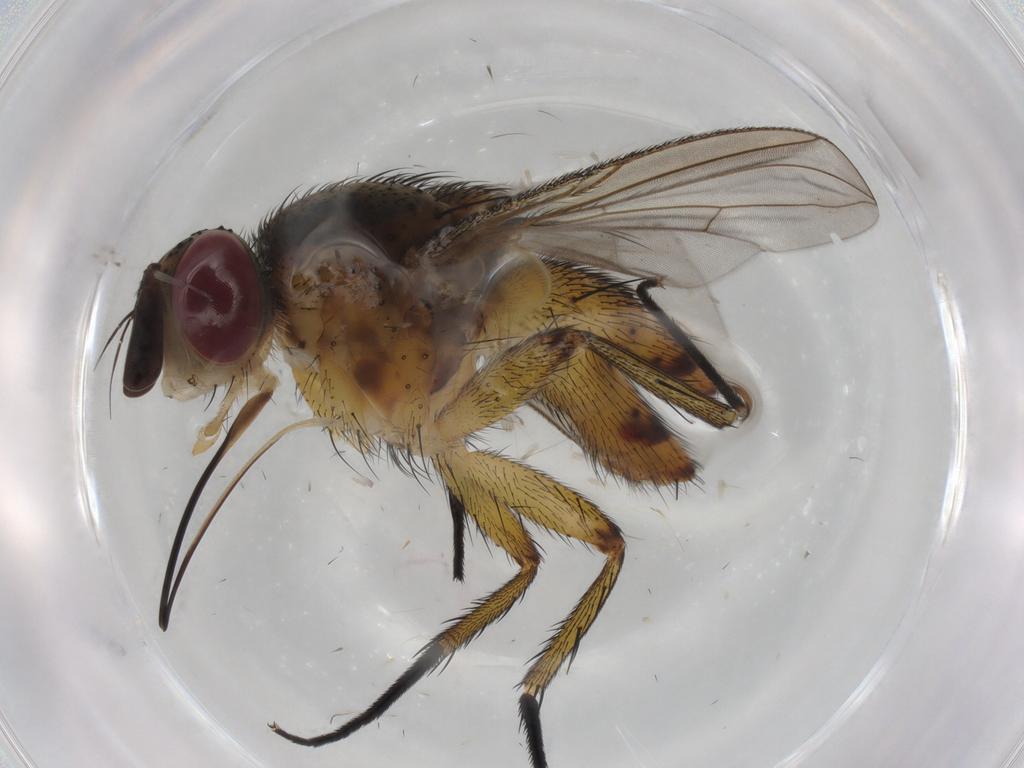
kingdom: Animalia
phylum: Arthropoda
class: Insecta
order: Diptera
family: Tachinidae
